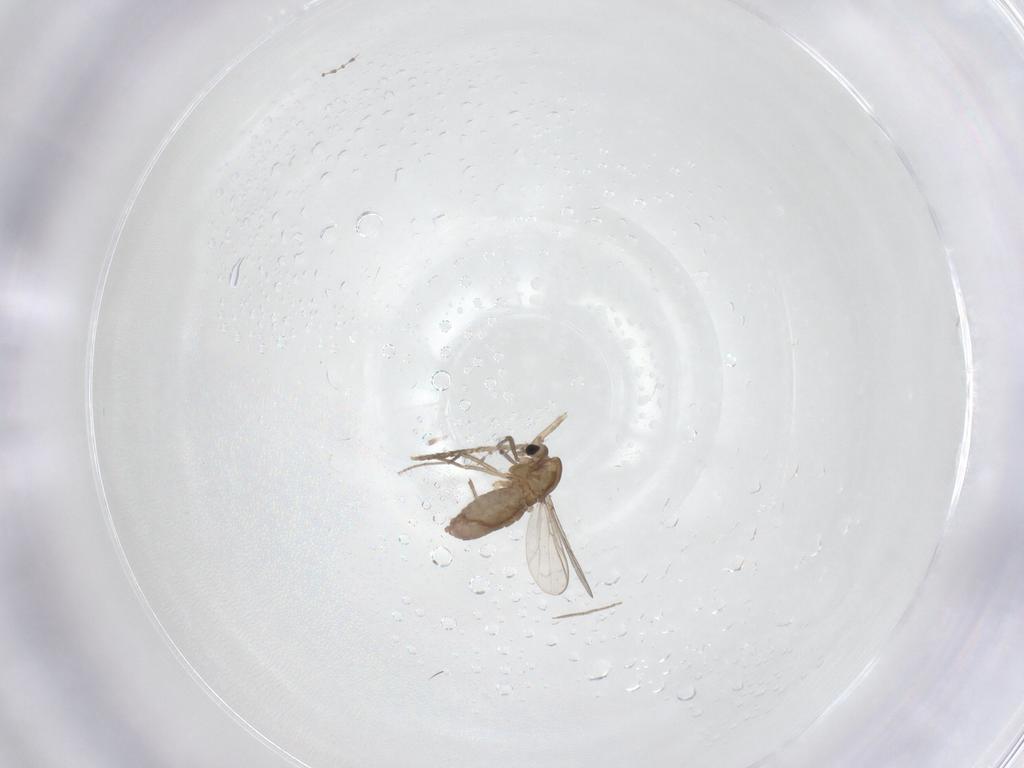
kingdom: Animalia
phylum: Arthropoda
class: Insecta
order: Diptera
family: Chironomidae
